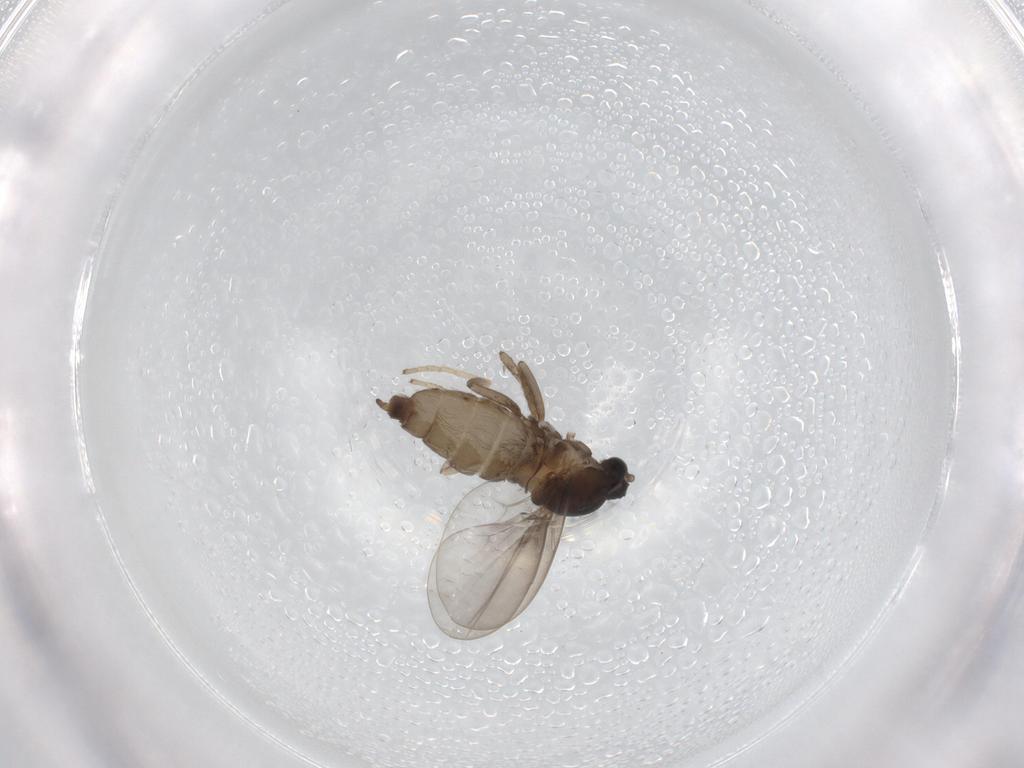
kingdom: Animalia
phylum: Arthropoda
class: Insecta
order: Diptera
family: Cecidomyiidae
